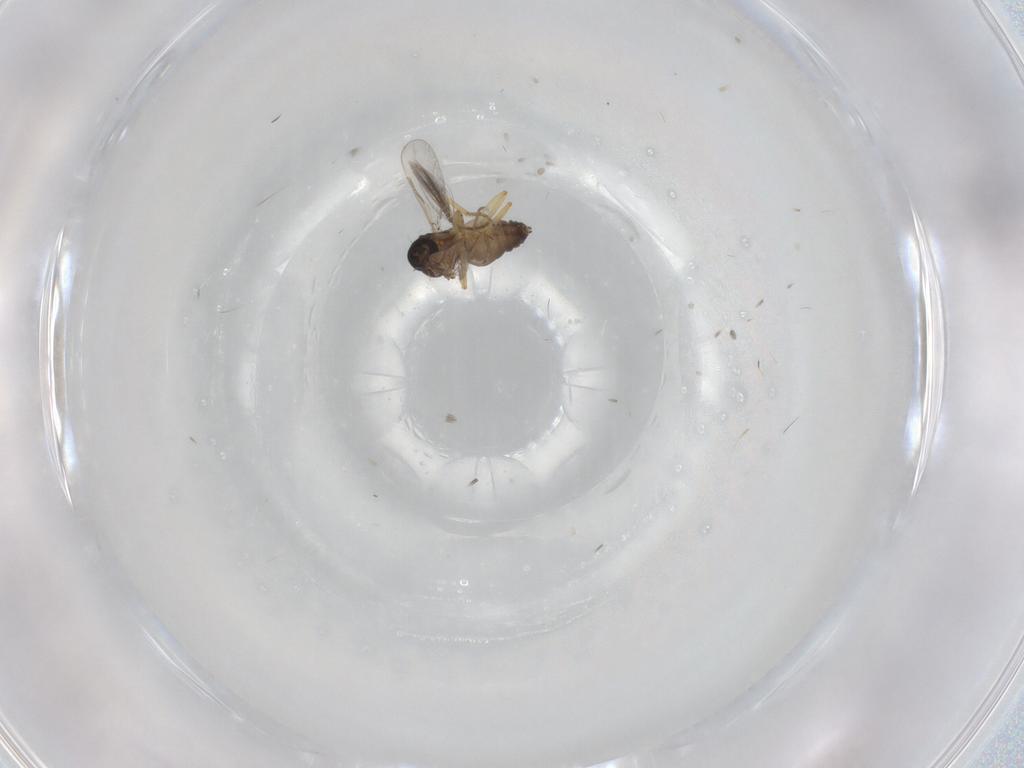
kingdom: Animalia
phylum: Arthropoda
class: Insecta
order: Diptera
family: Ceratopogonidae
